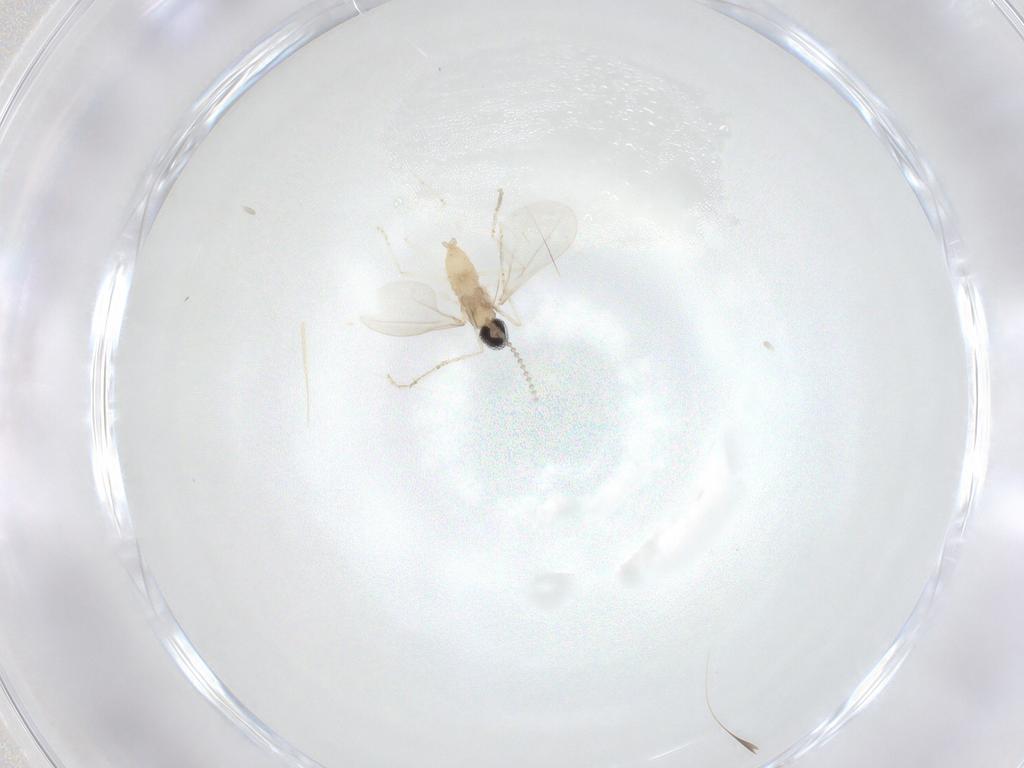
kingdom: Animalia
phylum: Arthropoda
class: Insecta
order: Diptera
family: Cecidomyiidae
